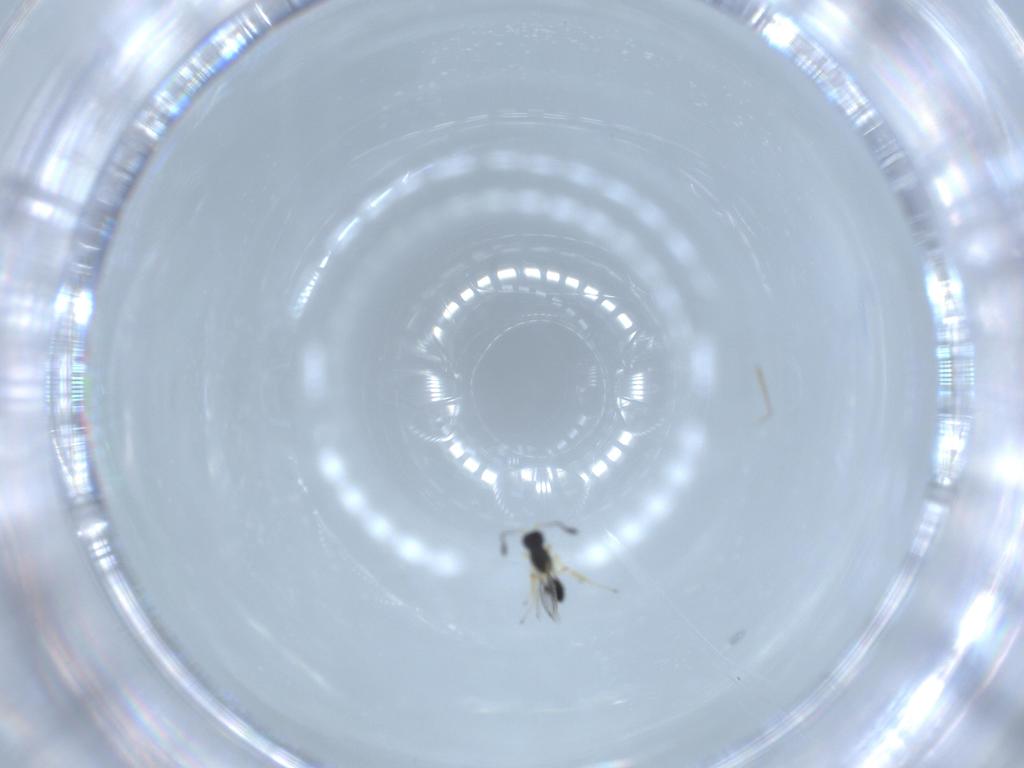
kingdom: Animalia
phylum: Arthropoda
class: Insecta
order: Hymenoptera
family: Mymaridae
